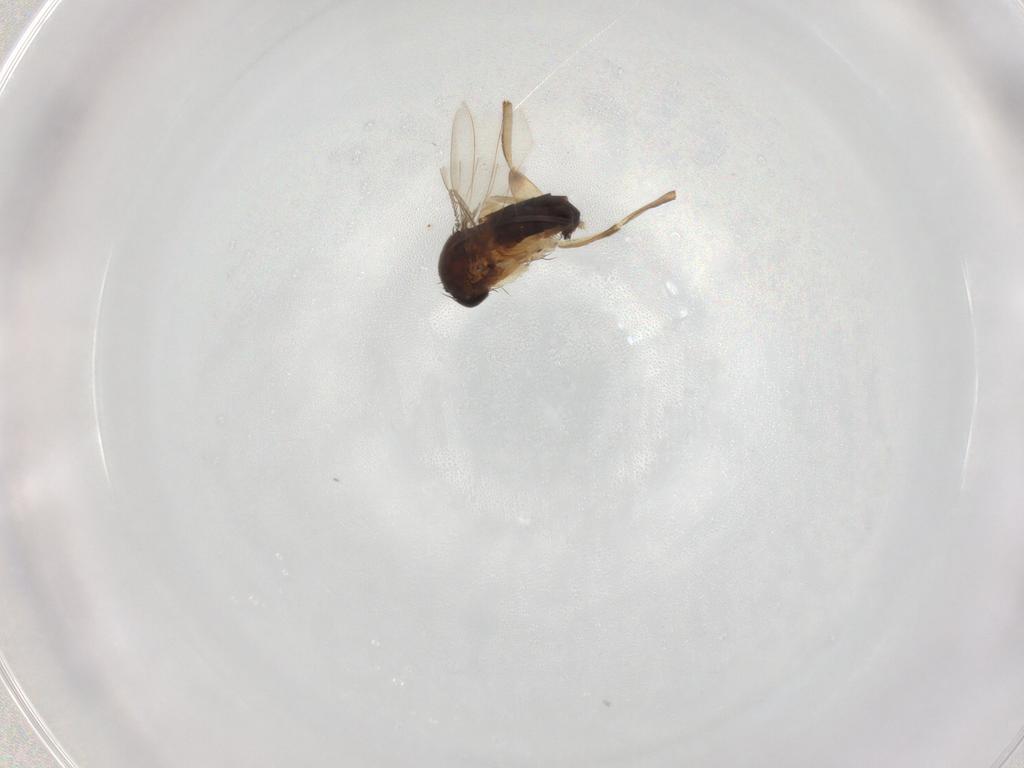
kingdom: Animalia
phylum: Arthropoda
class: Insecta
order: Diptera
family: Phoridae
